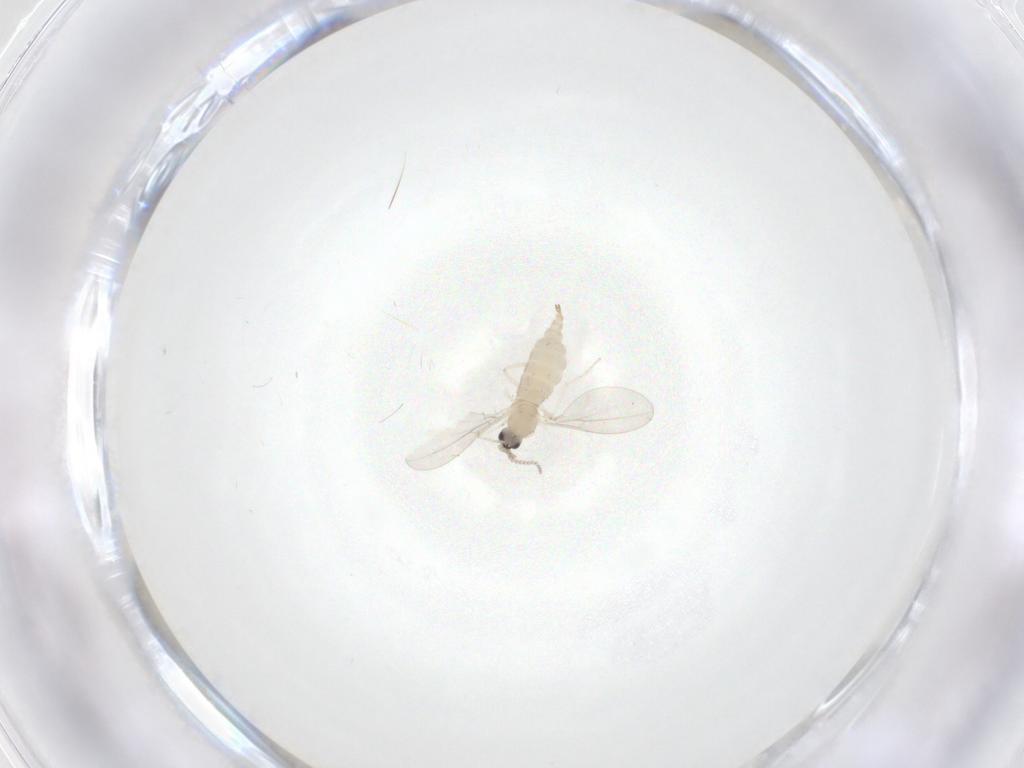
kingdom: Animalia
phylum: Arthropoda
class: Insecta
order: Diptera
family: Cecidomyiidae
